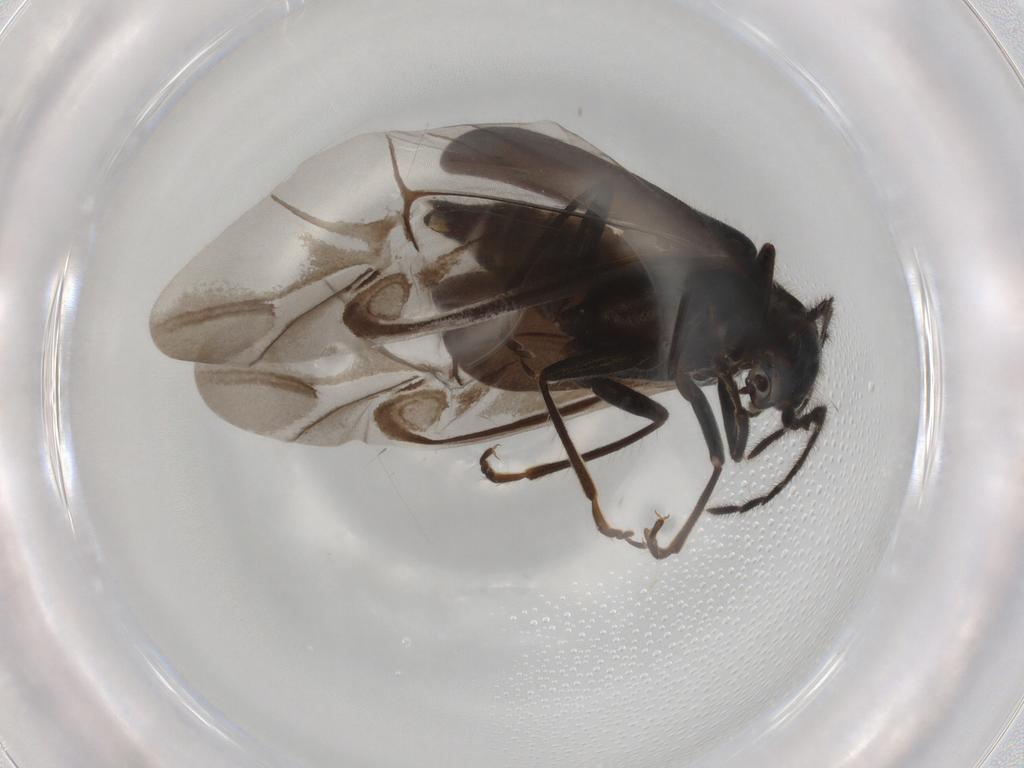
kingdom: Animalia
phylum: Arthropoda
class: Insecta
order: Coleoptera
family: Melyridae
